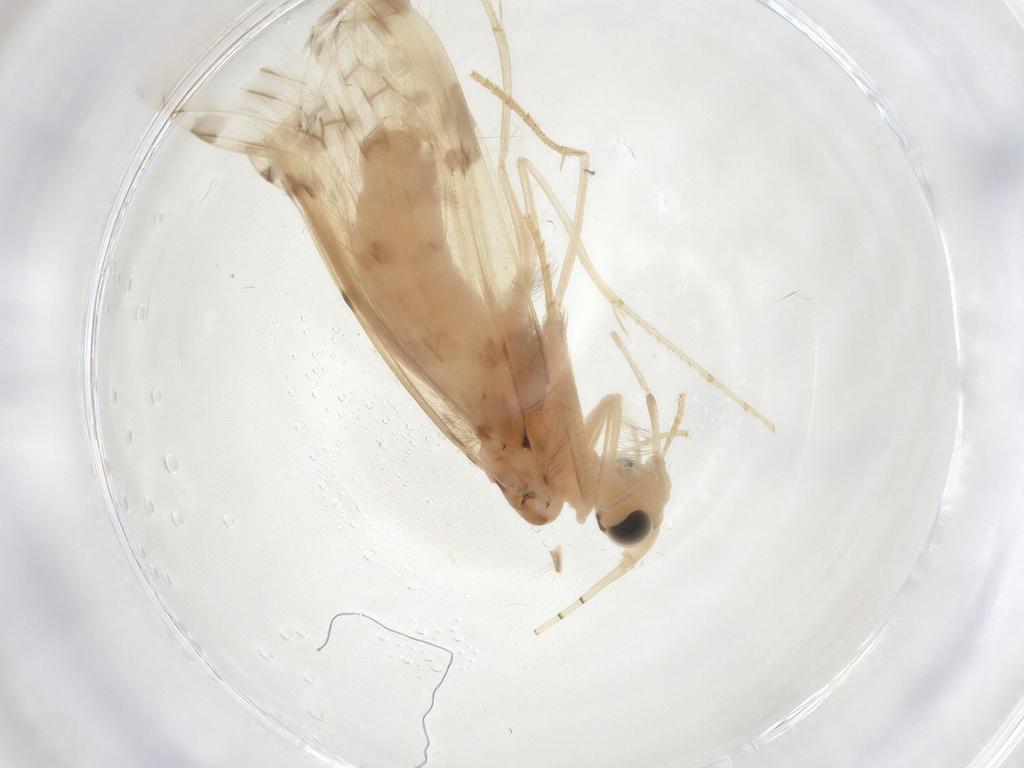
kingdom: Animalia
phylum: Arthropoda
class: Insecta
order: Trichoptera
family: Leptoceridae
